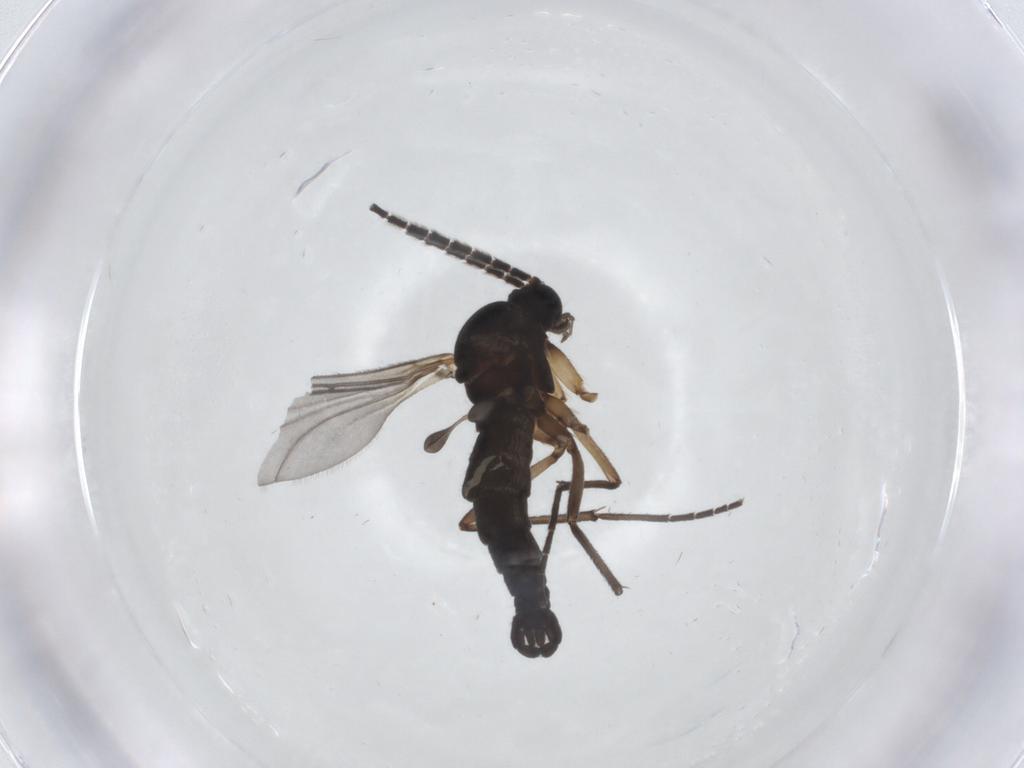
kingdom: Animalia
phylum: Arthropoda
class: Insecta
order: Diptera
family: Sciaridae
